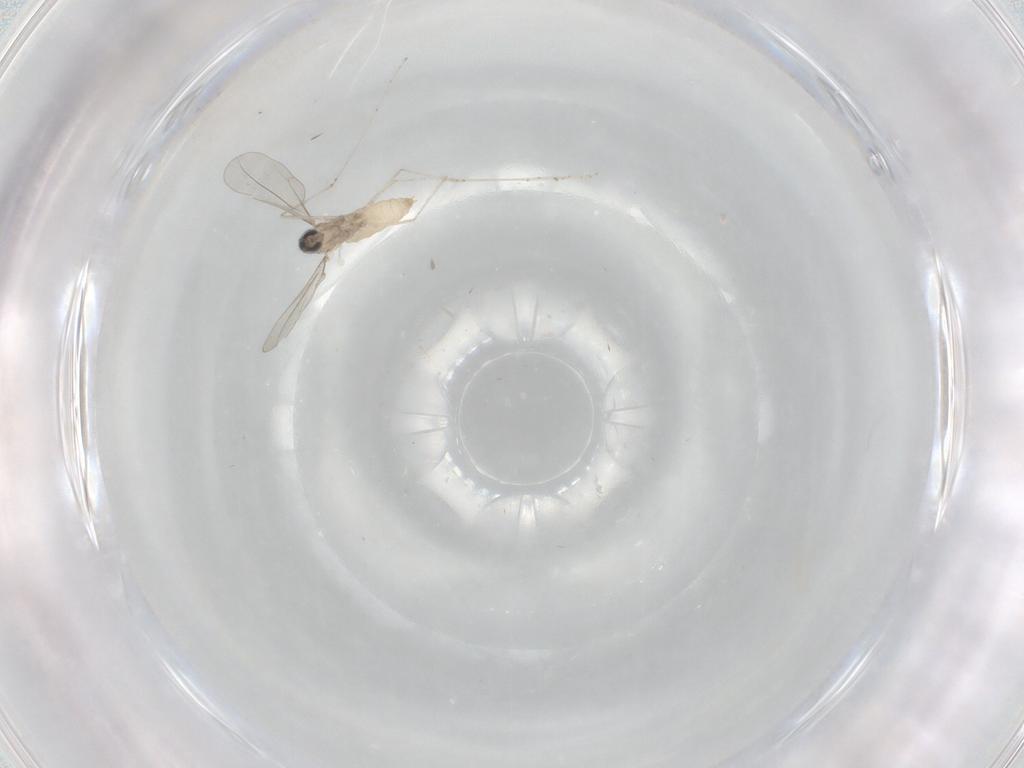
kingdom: Animalia
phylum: Arthropoda
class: Insecta
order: Diptera
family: Cecidomyiidae
